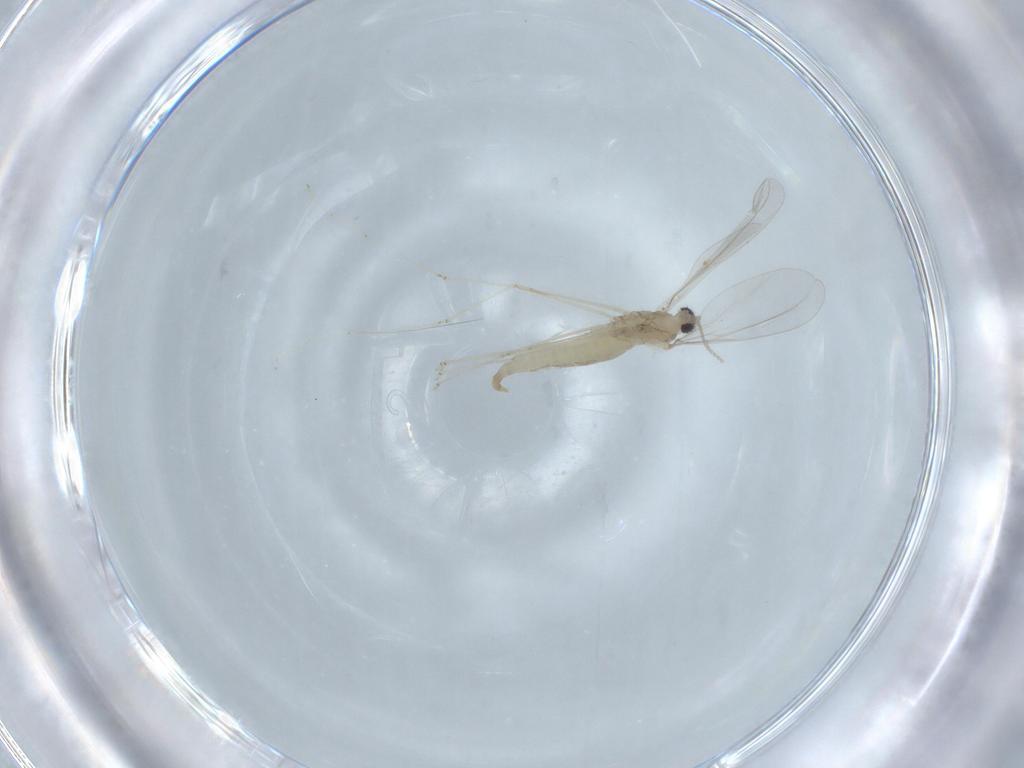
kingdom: Animalia
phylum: Arthropoda
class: Insecta
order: Diptera
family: Cecidomyiidae
